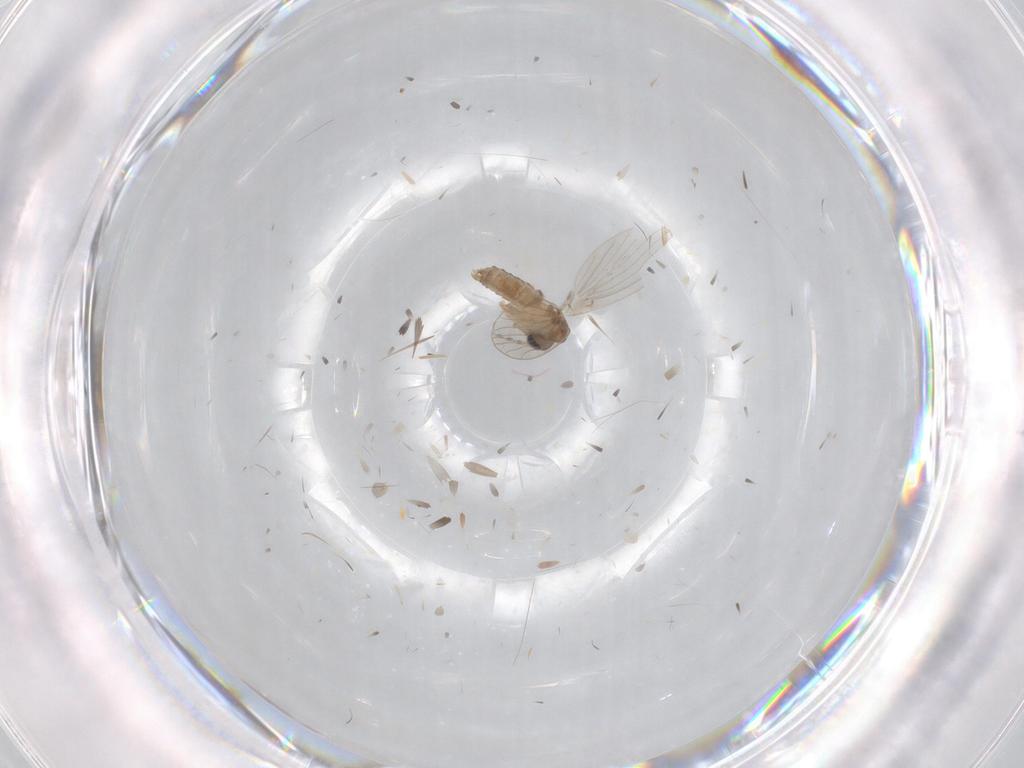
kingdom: Animalia
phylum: Arthropoda
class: Insecta
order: Diptera
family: Psychodidae
